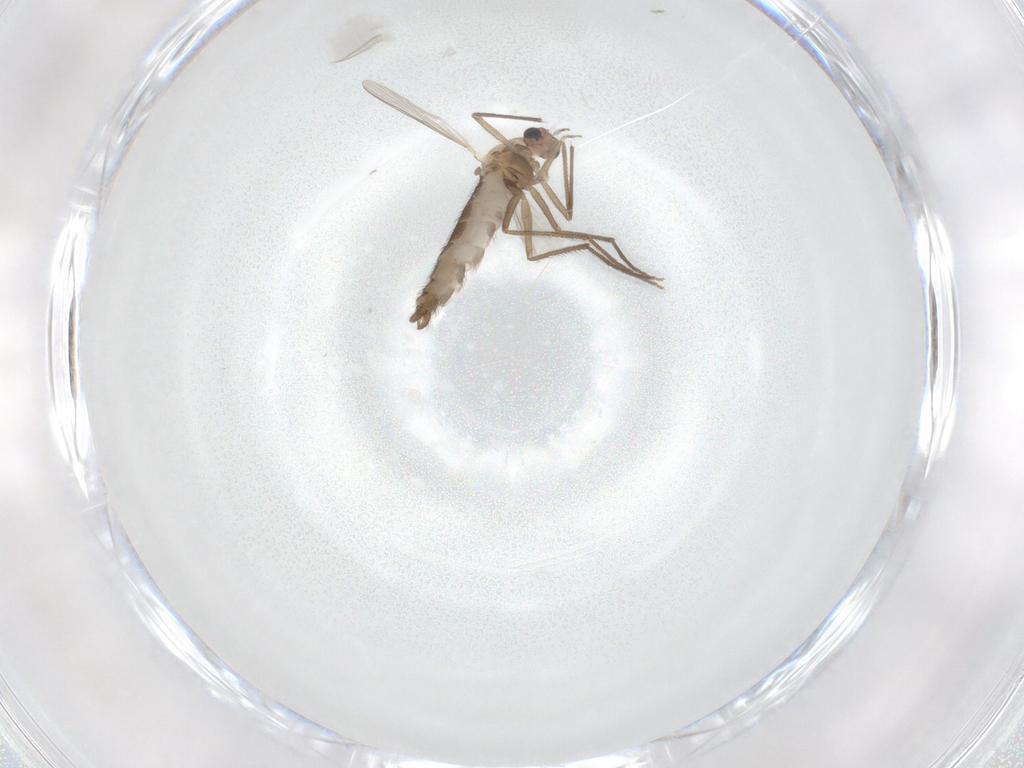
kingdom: Animalia
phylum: Arthropoda
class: Insecta
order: Diptera
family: Chironomidae
